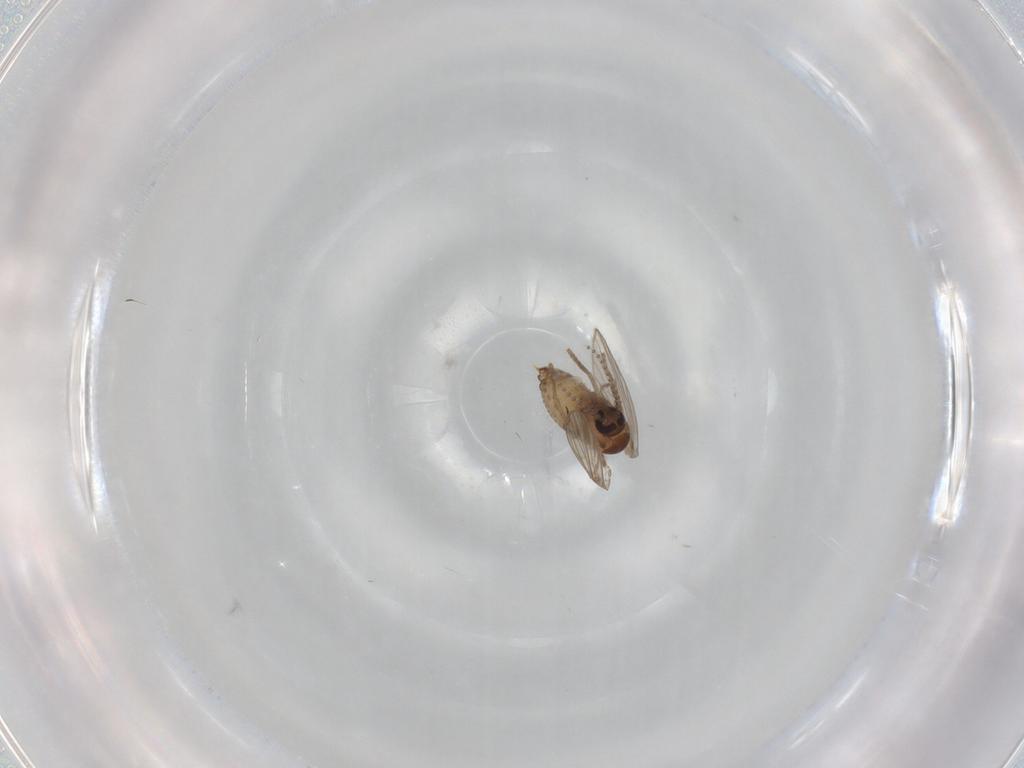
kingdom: Animalia
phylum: Arthropoda
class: Insecta
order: Diptera
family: Psychodidae
